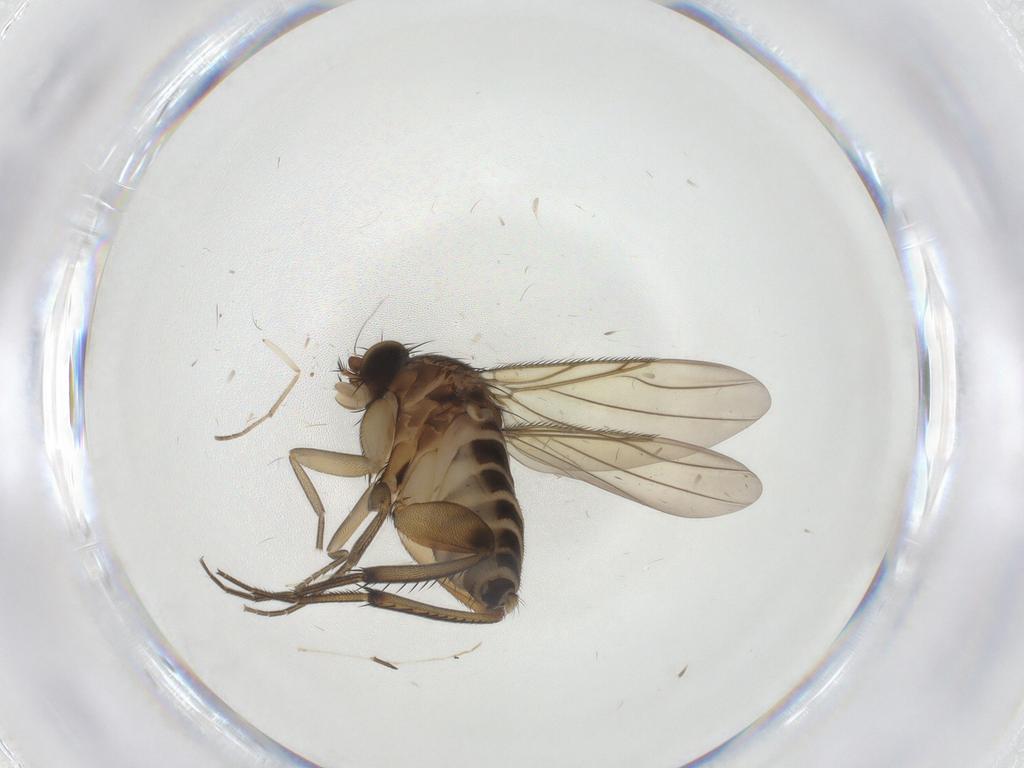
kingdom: Animalia
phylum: Arthropoda
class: Insecta
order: Diptera
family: Phoridae
